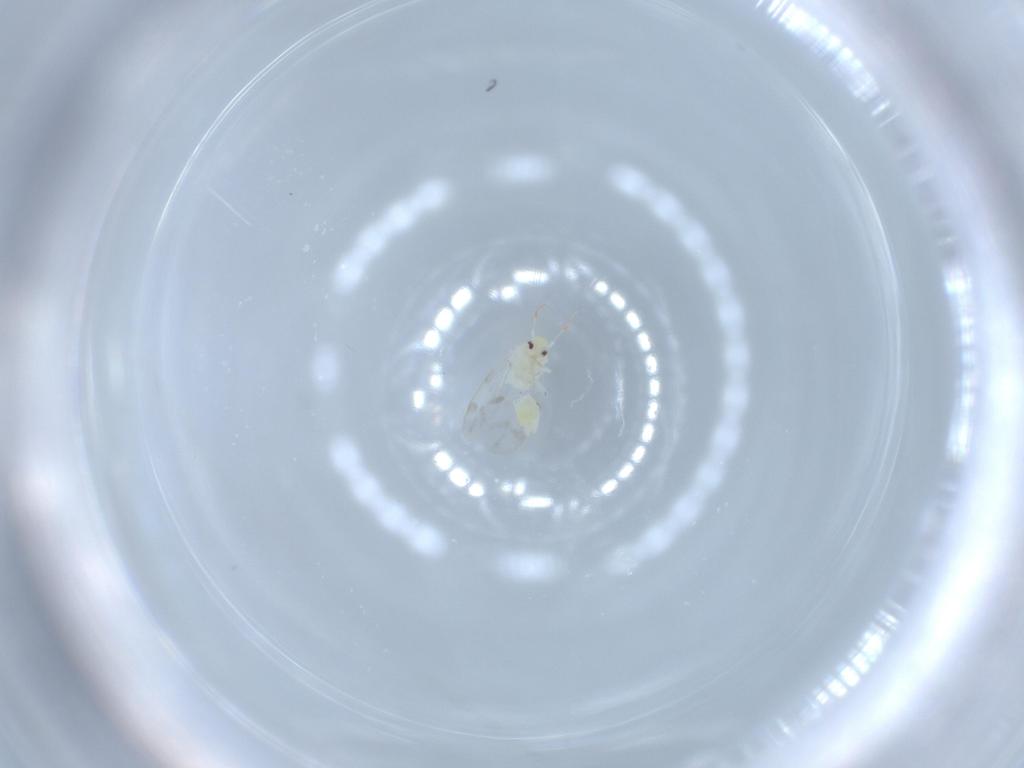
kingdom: Animalia
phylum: Arthropoda
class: Insecta
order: Hemiptera
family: Aleyrodidae
